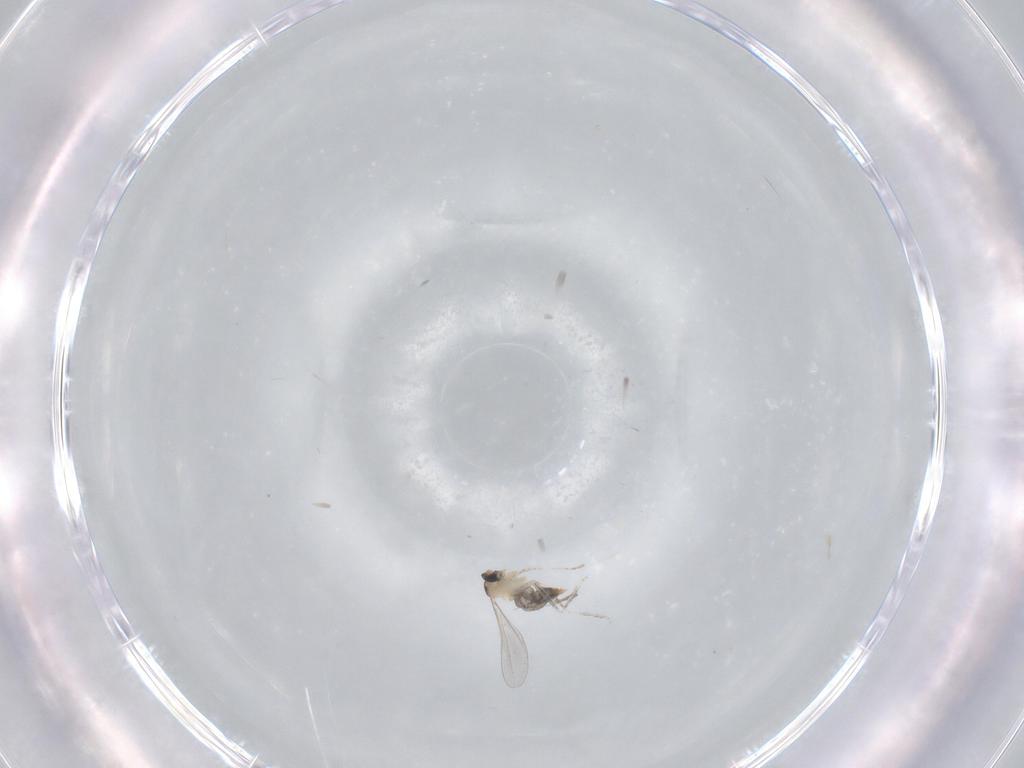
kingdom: Animalia
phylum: Arthropoda
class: Insecta
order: Diptera
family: Cecidomyiidae
